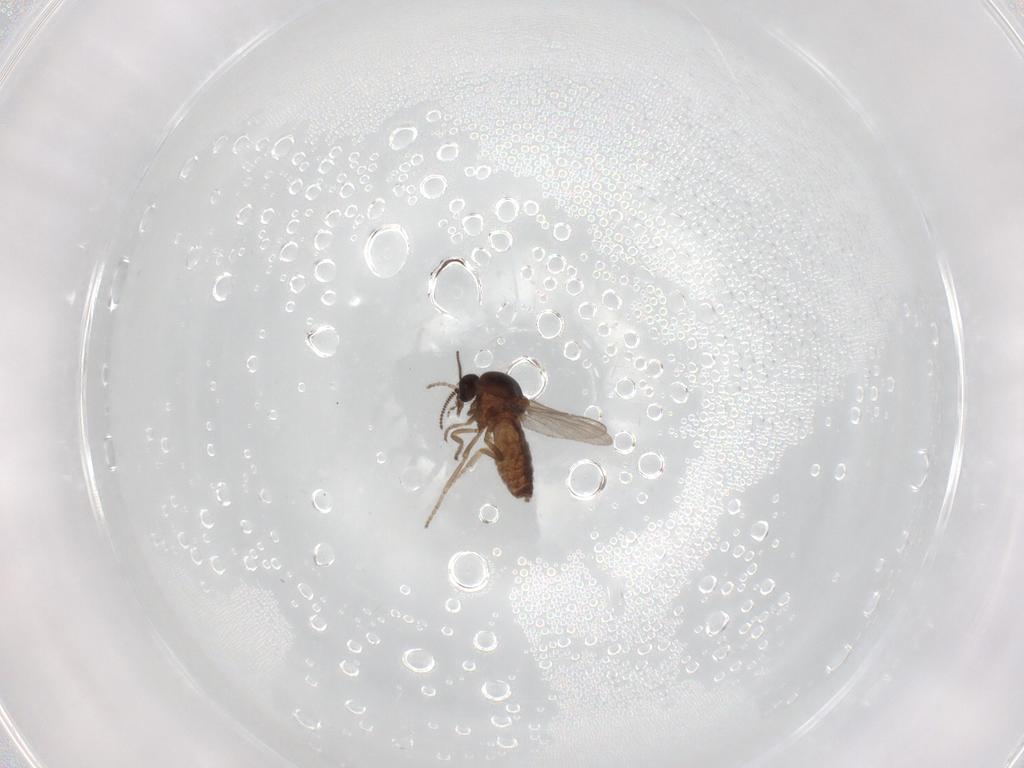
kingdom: Animalia
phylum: Arthropoda
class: Insecta
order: Diptera
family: Ceratopogonidae
